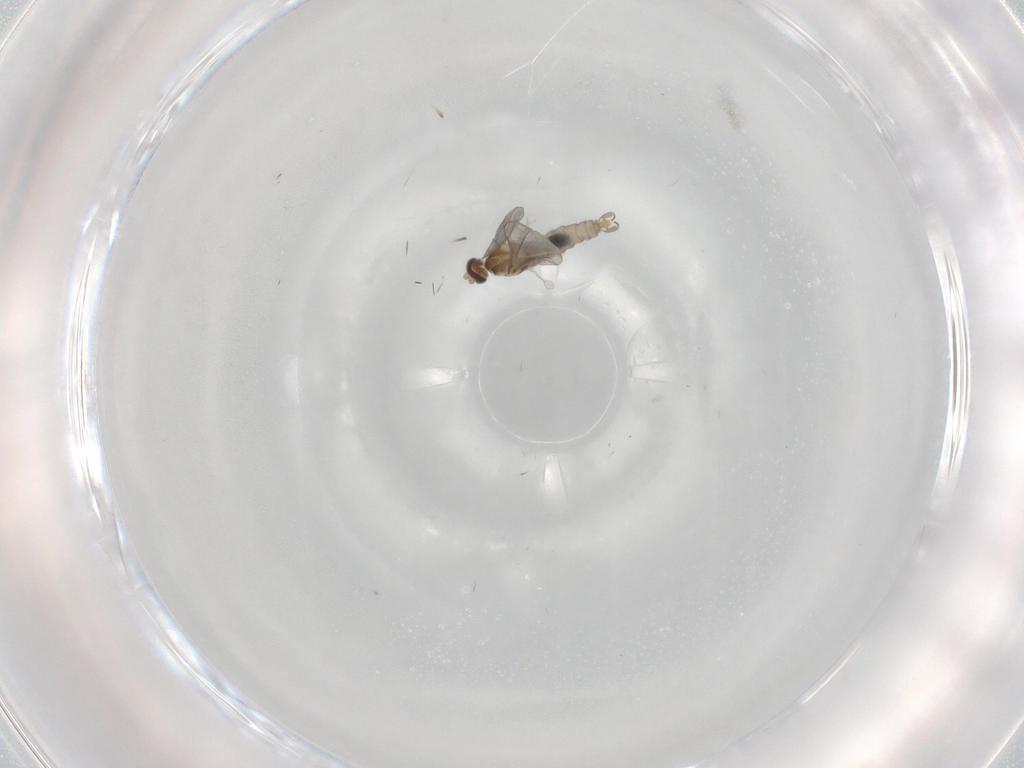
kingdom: Animalia
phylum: Arthropoda
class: Insecta
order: Diptera
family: Cecidomyiidae
